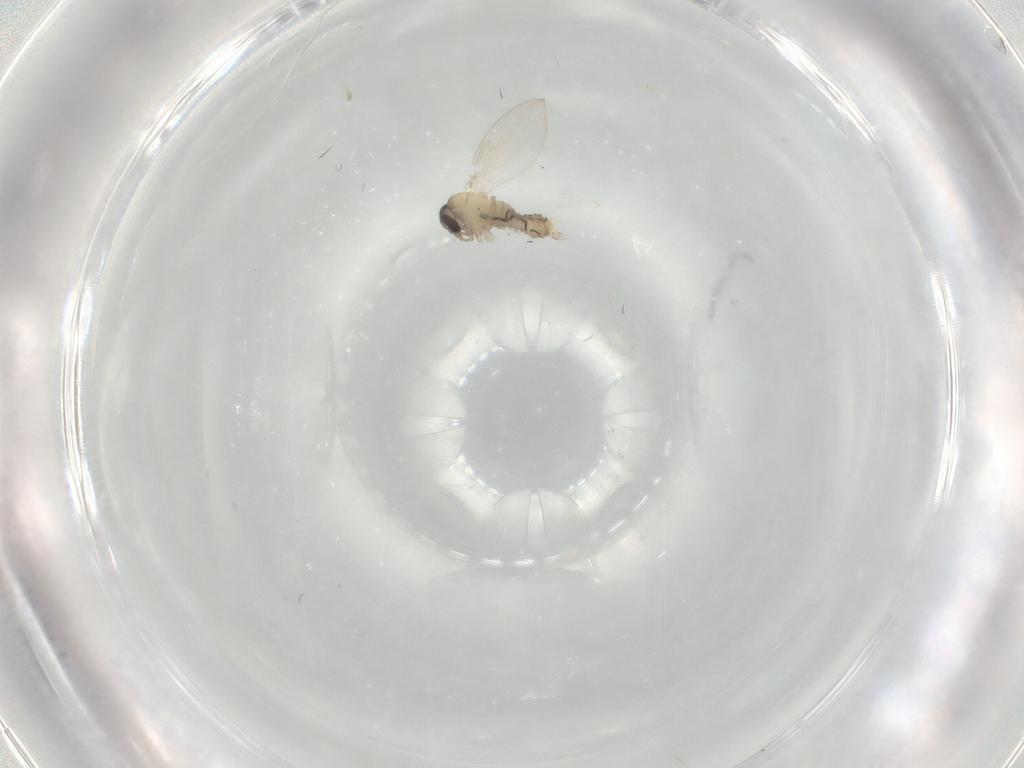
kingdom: Animalia
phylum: Arthropoda
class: Insecta
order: Diptera
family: Psychodidae
